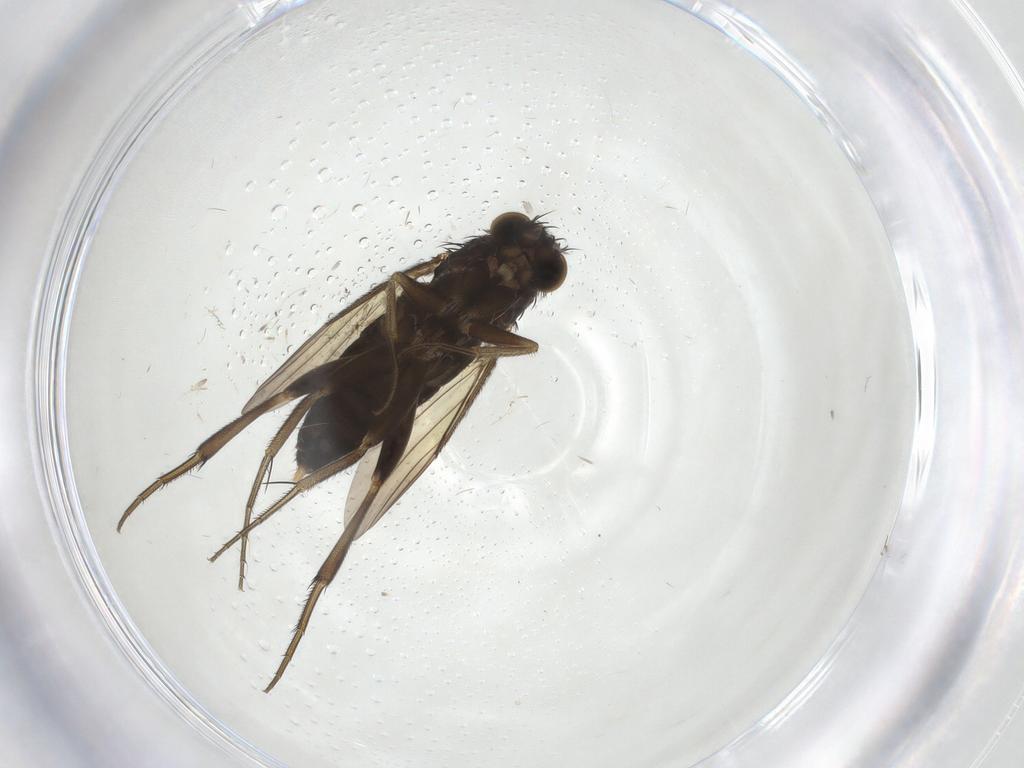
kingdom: Animalia
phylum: Arthropoda
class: Insecta
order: Diptera
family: Phoridae
